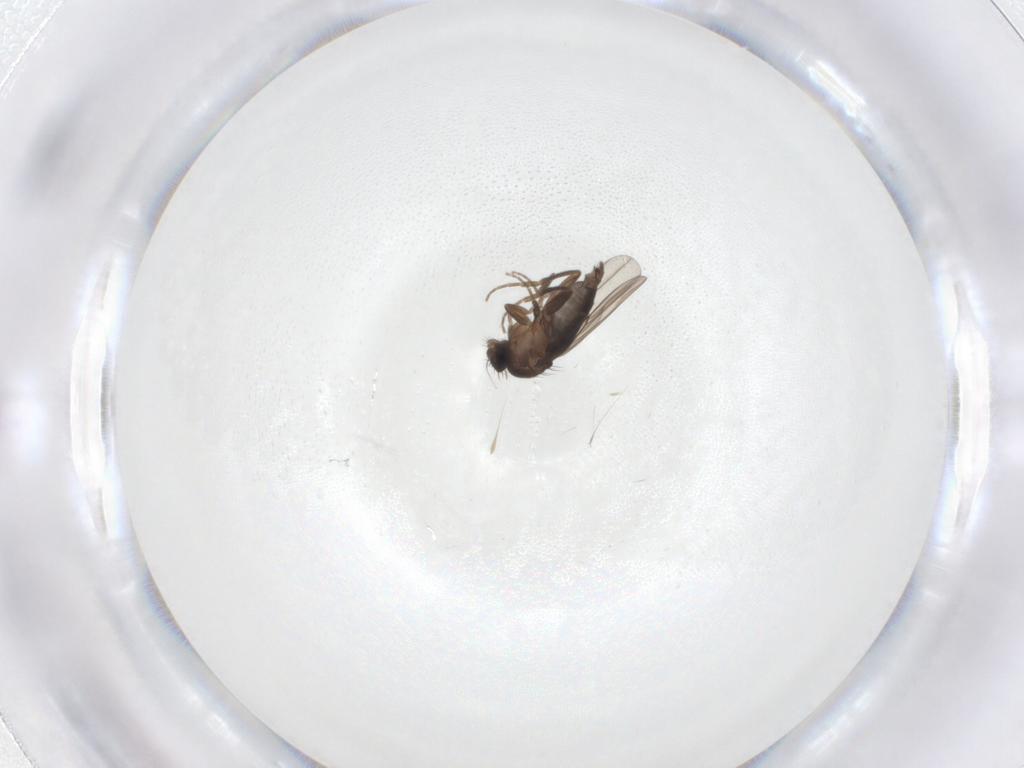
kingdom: Animalia
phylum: Arthropoda
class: Insecta
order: Diptera
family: Phoridae
